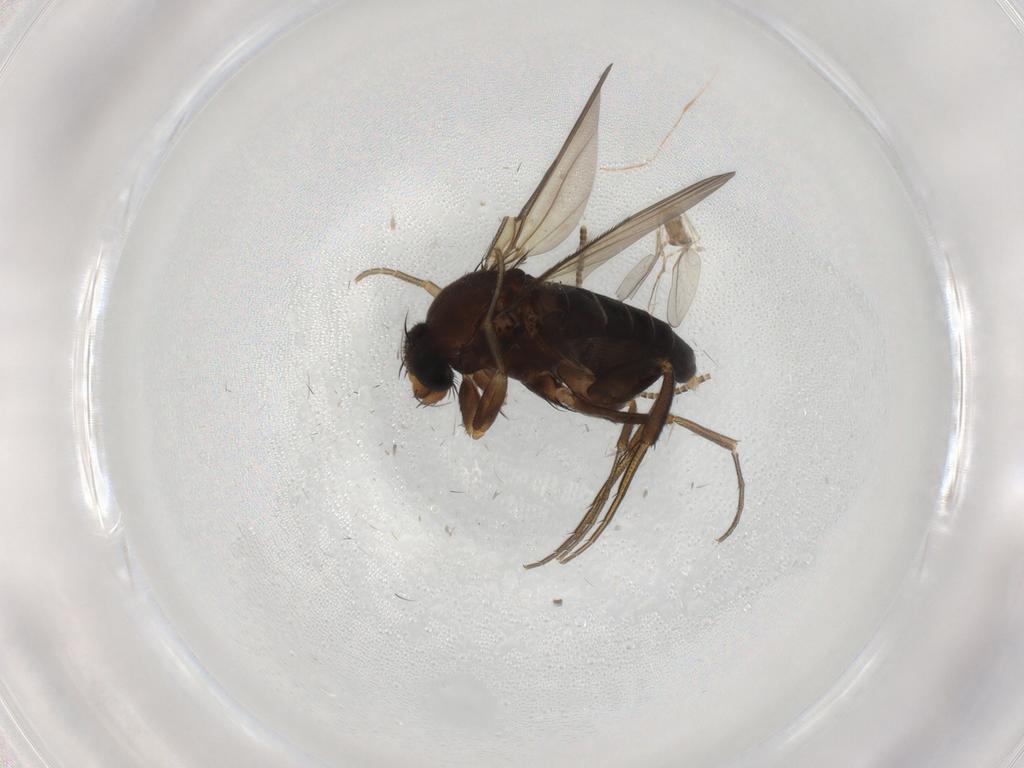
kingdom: Animalia
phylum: Arthropoda
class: Insecta
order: Diptera
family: Phoridae
